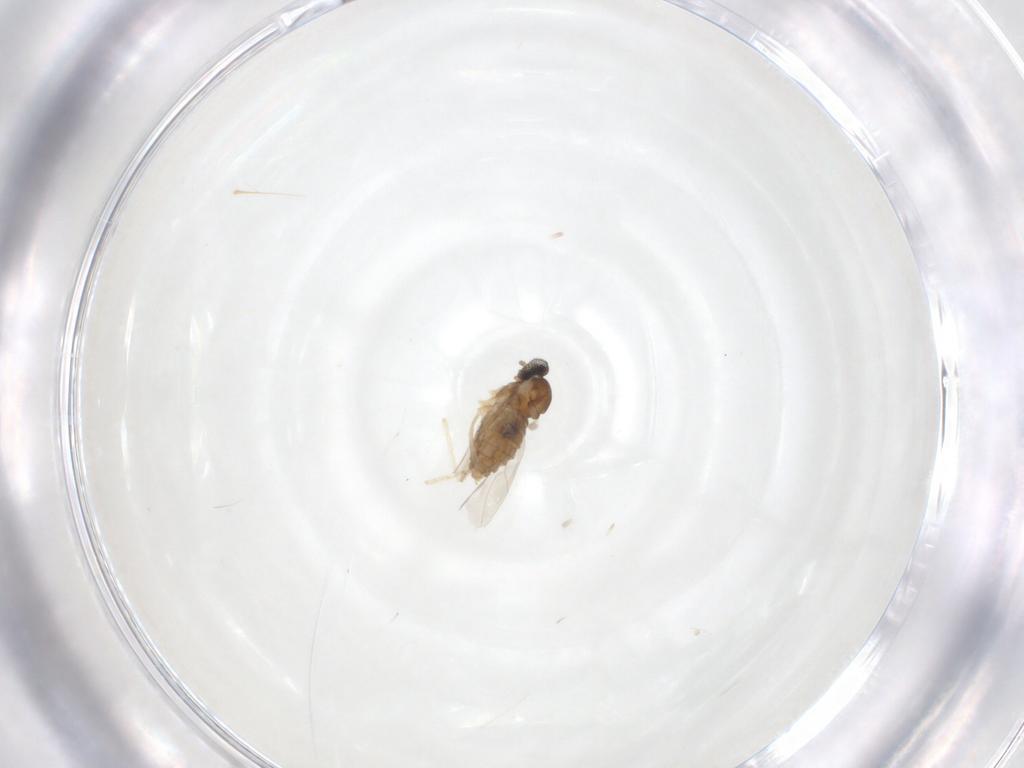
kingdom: Animalia
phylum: Arthropoda
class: Insecta
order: Diptera
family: Cecidomyiidae
